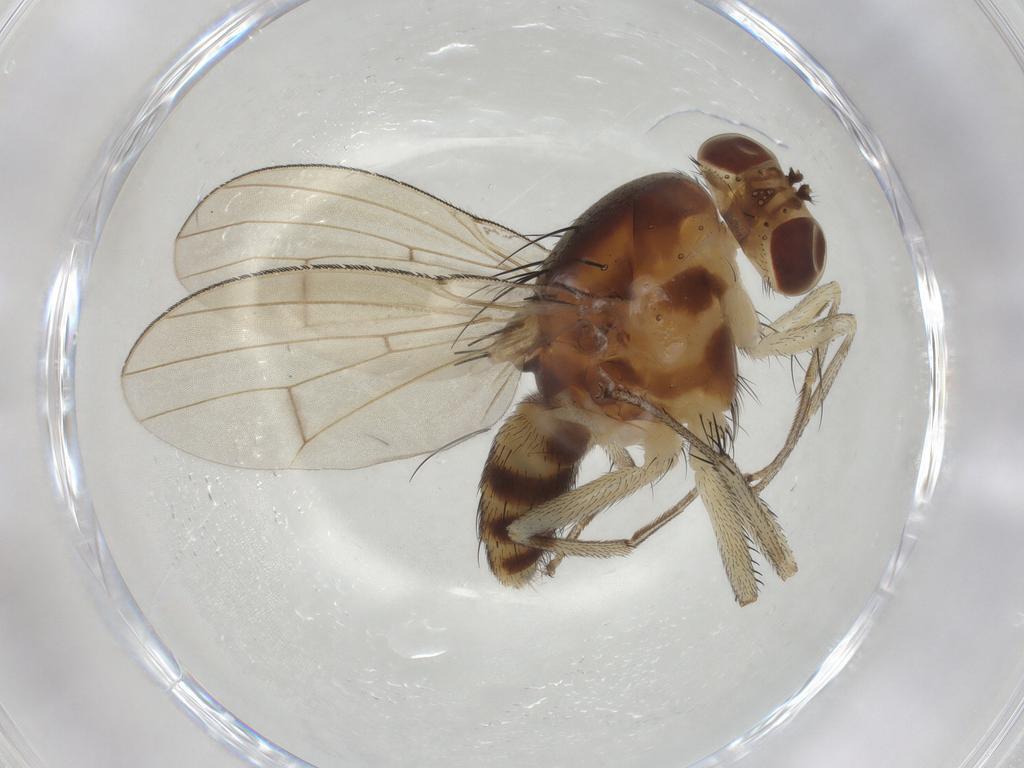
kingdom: Animalia
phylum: Arthropoda
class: Insecta
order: Diptera
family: Lauxaniidae
